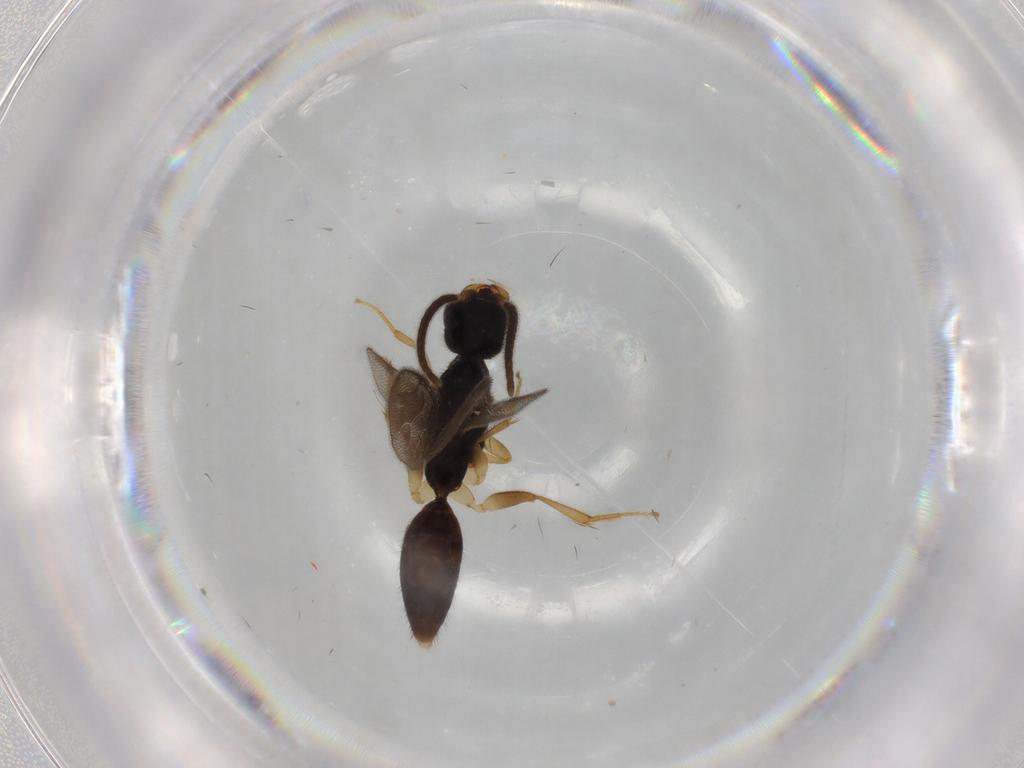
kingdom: Animalia
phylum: Arthropoda
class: Insecta
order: Hymenoptera
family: Bethylidae
